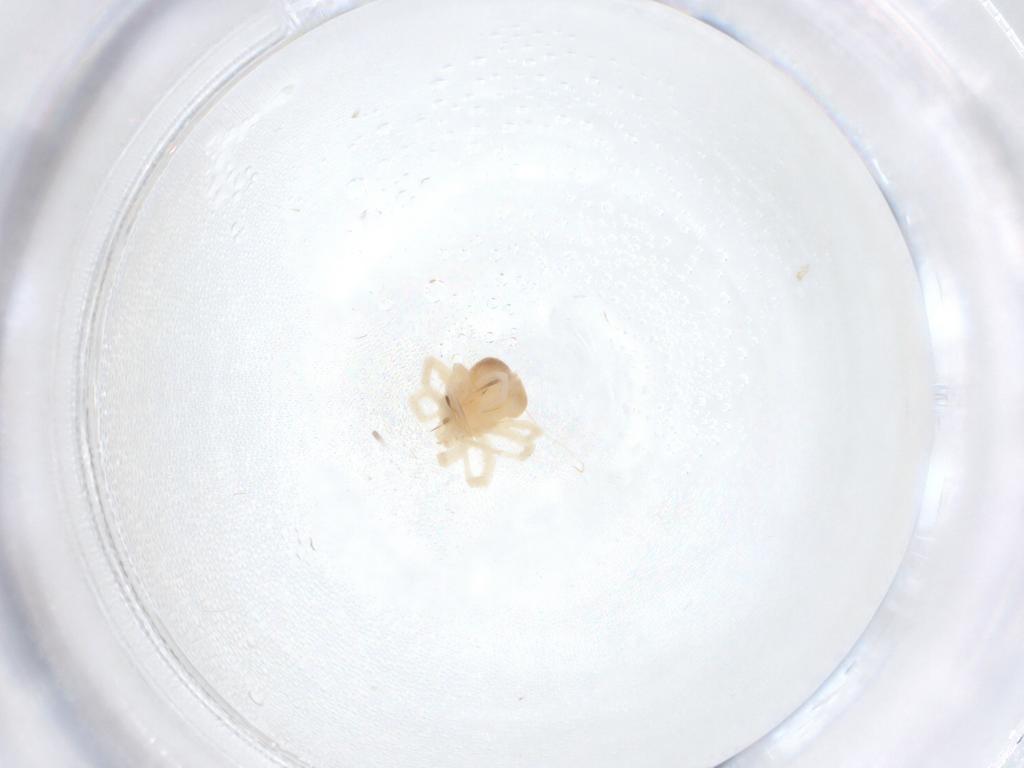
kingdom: Animalia
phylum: Arthropoda
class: Arachnida
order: Trombidiformes
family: Anystidae
